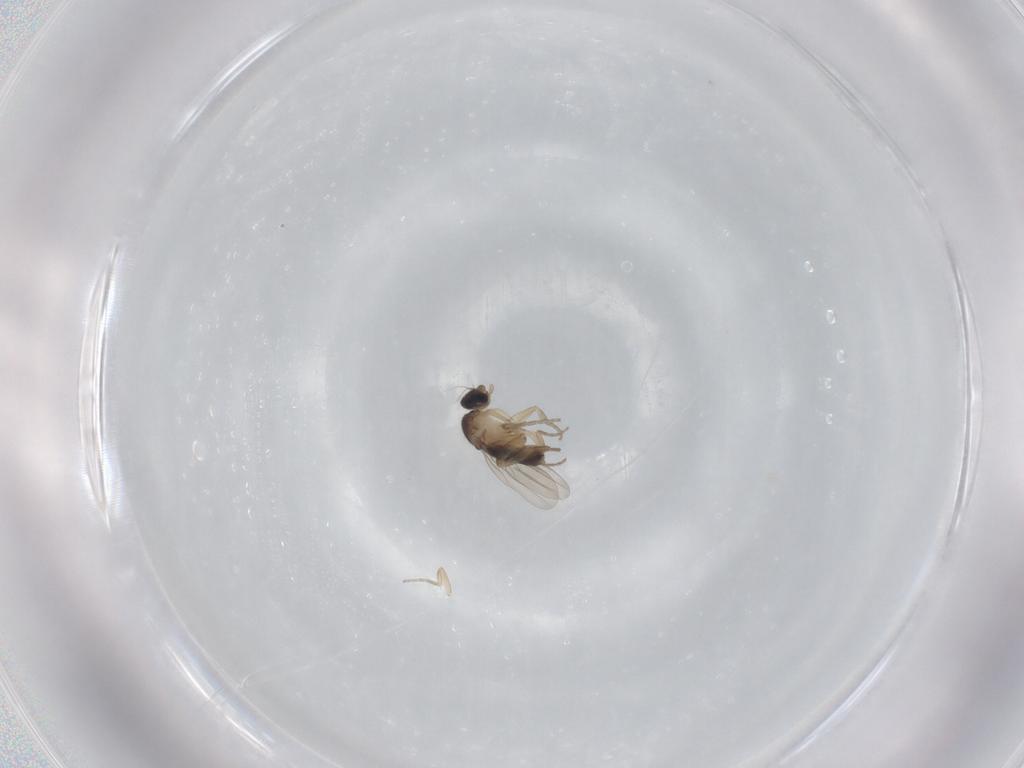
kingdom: Animalia
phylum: Arthropoda
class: Insecta
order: Diptera
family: Phoridae
